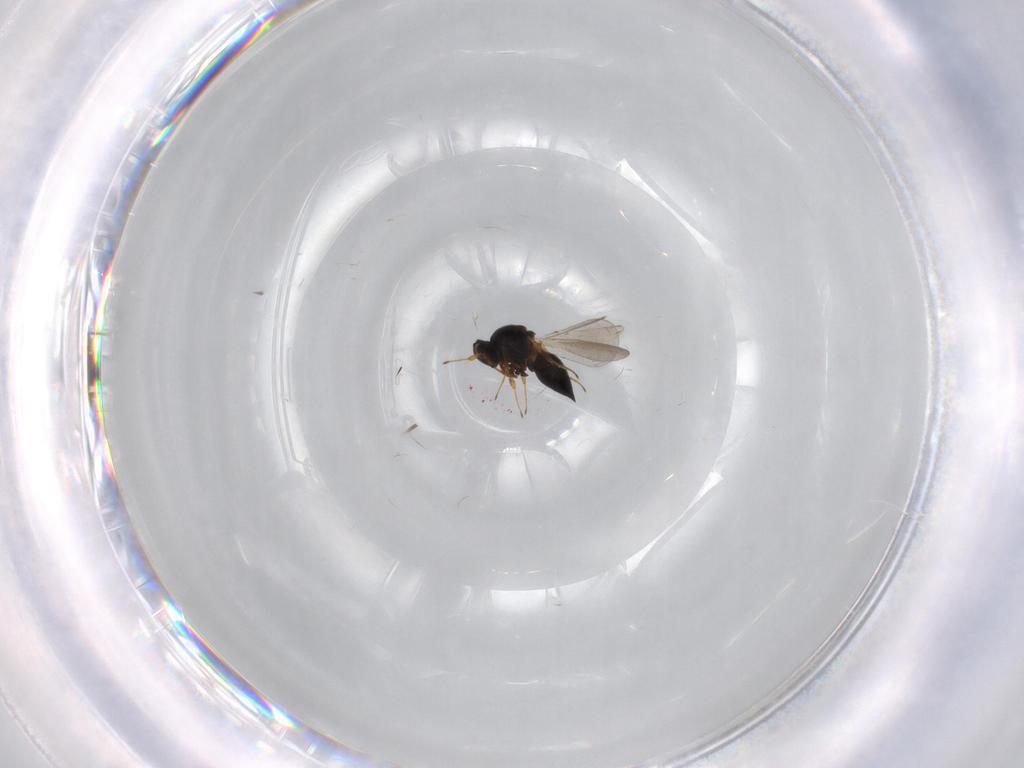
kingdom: Animalia
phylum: Arthropoda
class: Insecta
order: Hymenoptera
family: Platygastridae
